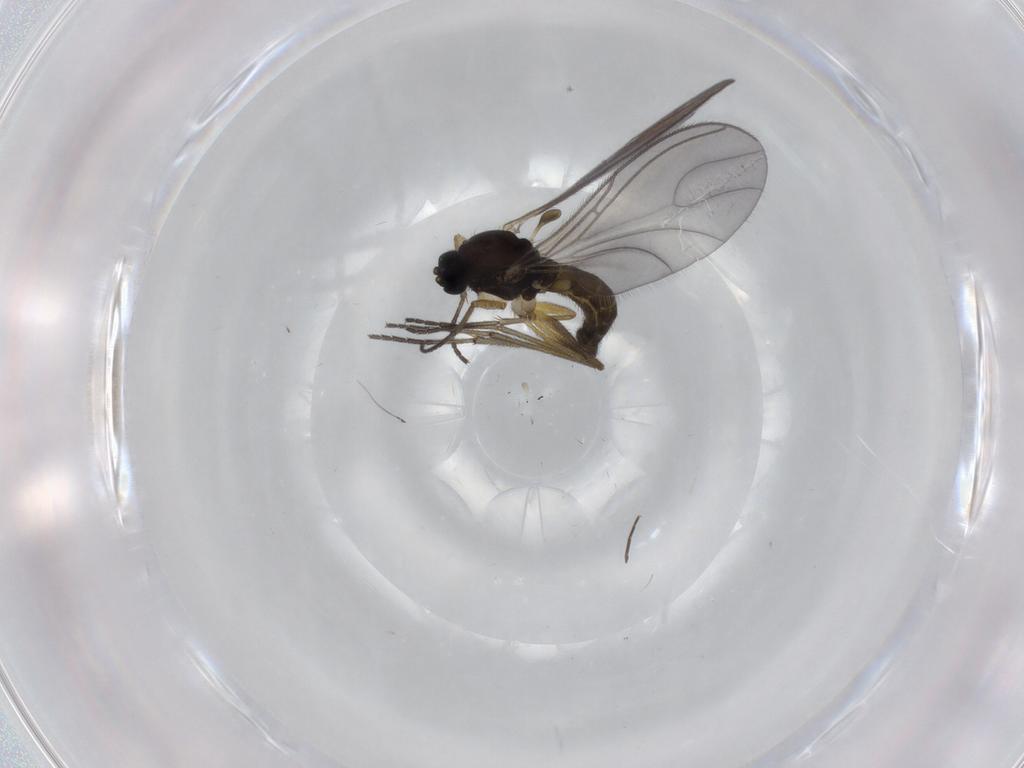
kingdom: Animalia
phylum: Arthropoda
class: Insecta
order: Diptera
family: Sciaridae
